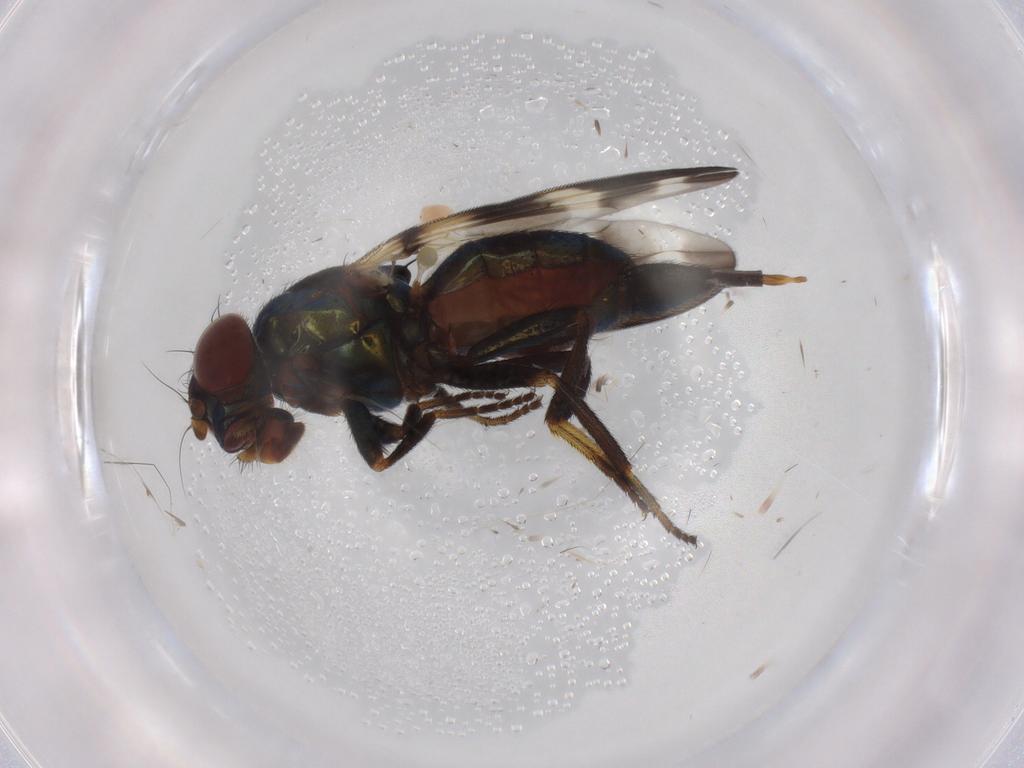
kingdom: Animalia
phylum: Arthropoda
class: Insecta
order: Diptera
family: Ulidiidae
